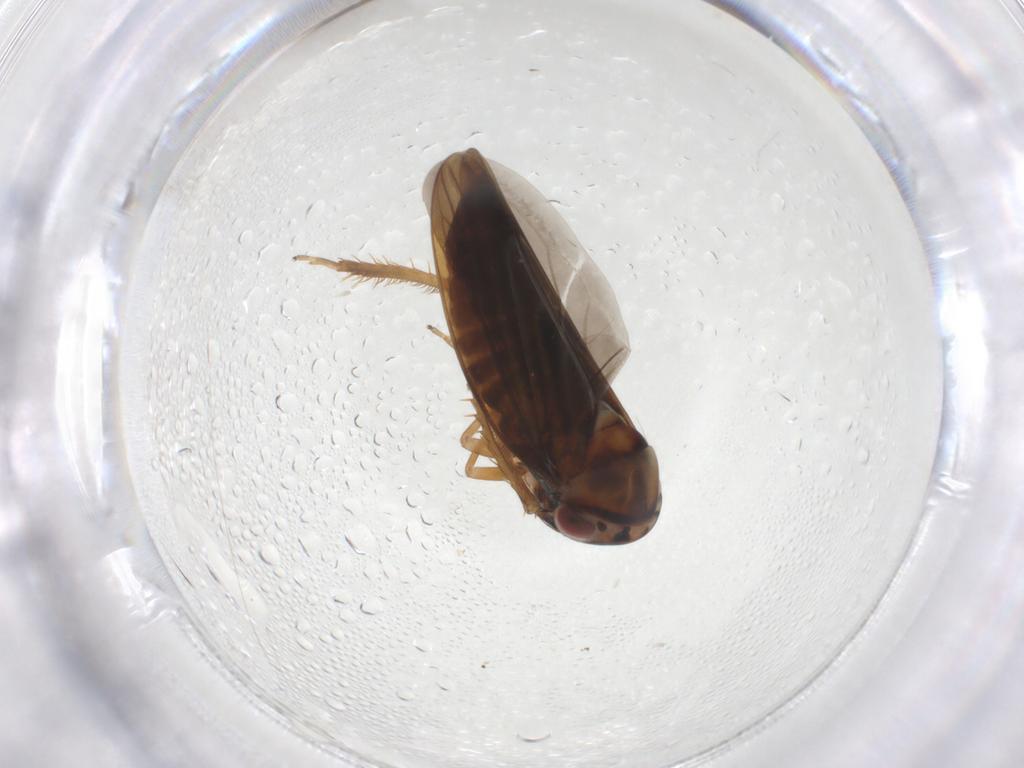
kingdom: Animalia
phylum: Arthropoda
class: Insecta
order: Hemiptera
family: Cicadellidae
